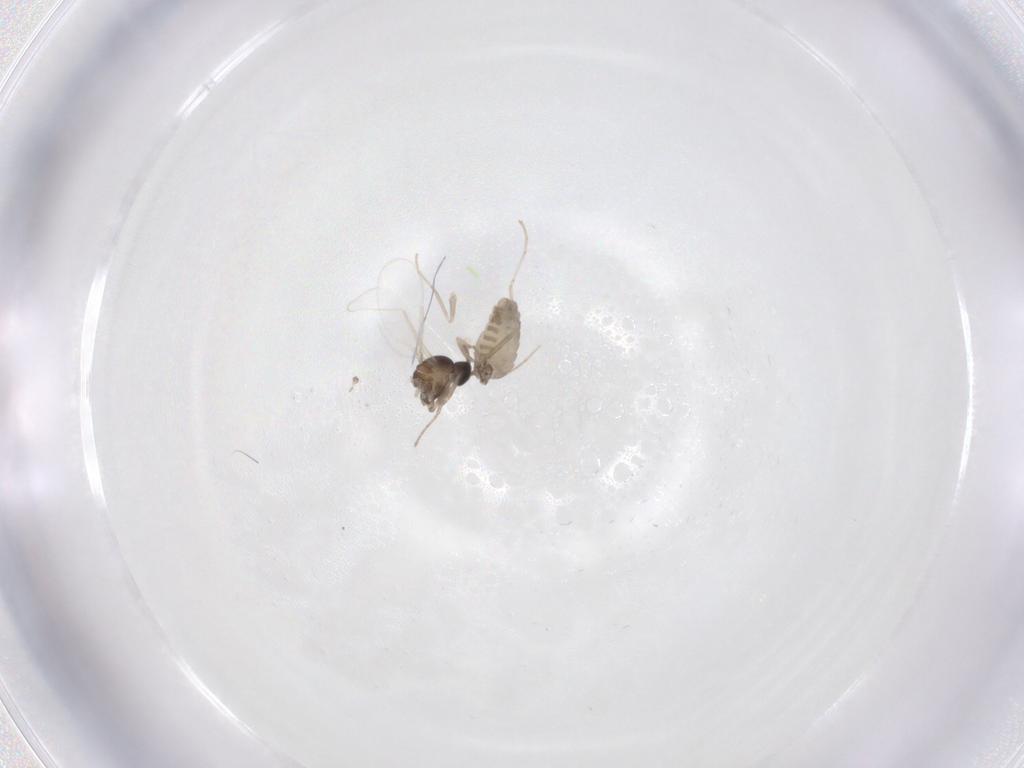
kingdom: Animalia
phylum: Arthropoda
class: Insecta
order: Diptera
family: Cecidomyiidae
